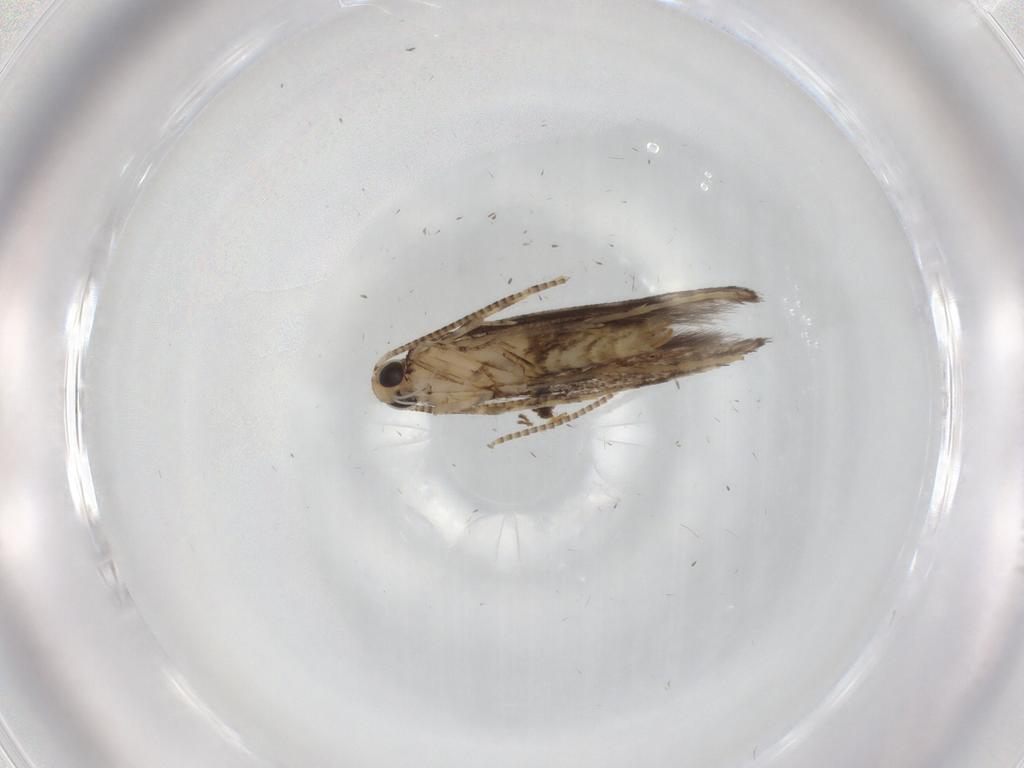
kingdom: Animalia
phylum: Arthropoda
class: Insecta
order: Lepidoptera
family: Gracillariidae
